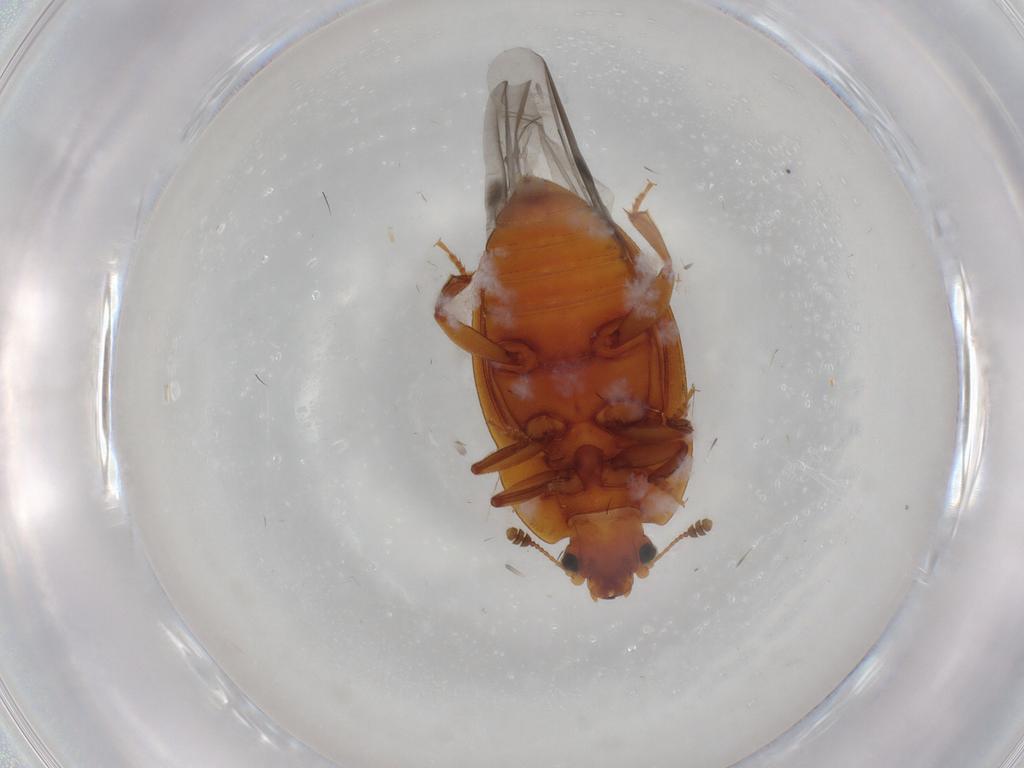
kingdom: Animalia
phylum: Arthropoda
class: Insecta
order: Coleoptera
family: Nitidulidae
